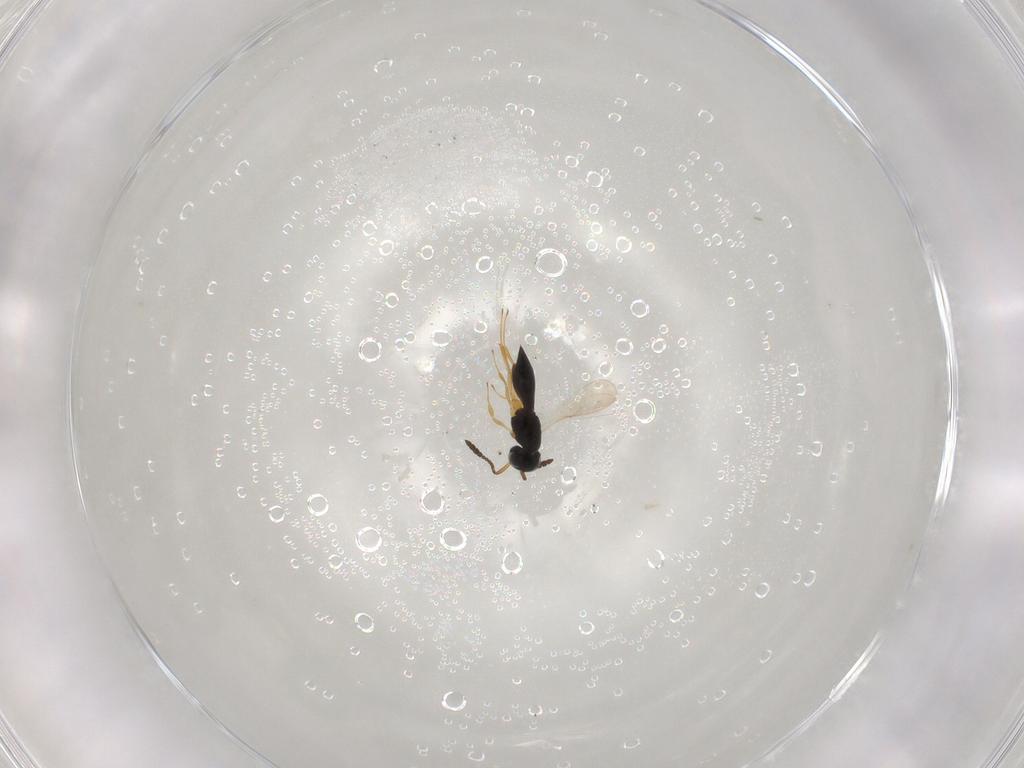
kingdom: Animalia
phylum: Arthropoda
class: Insecta
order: Hymenoptera
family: Scelionidae
